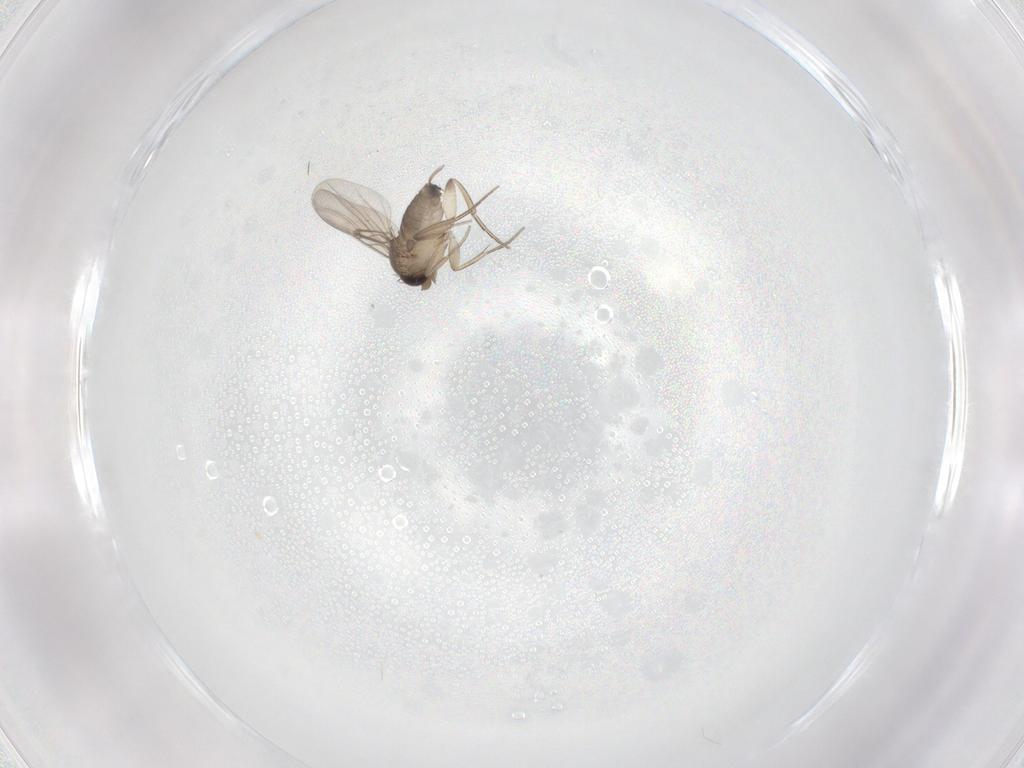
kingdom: Animalia
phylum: Arthropoda
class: Insecta
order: Diptera
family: Phoridae
